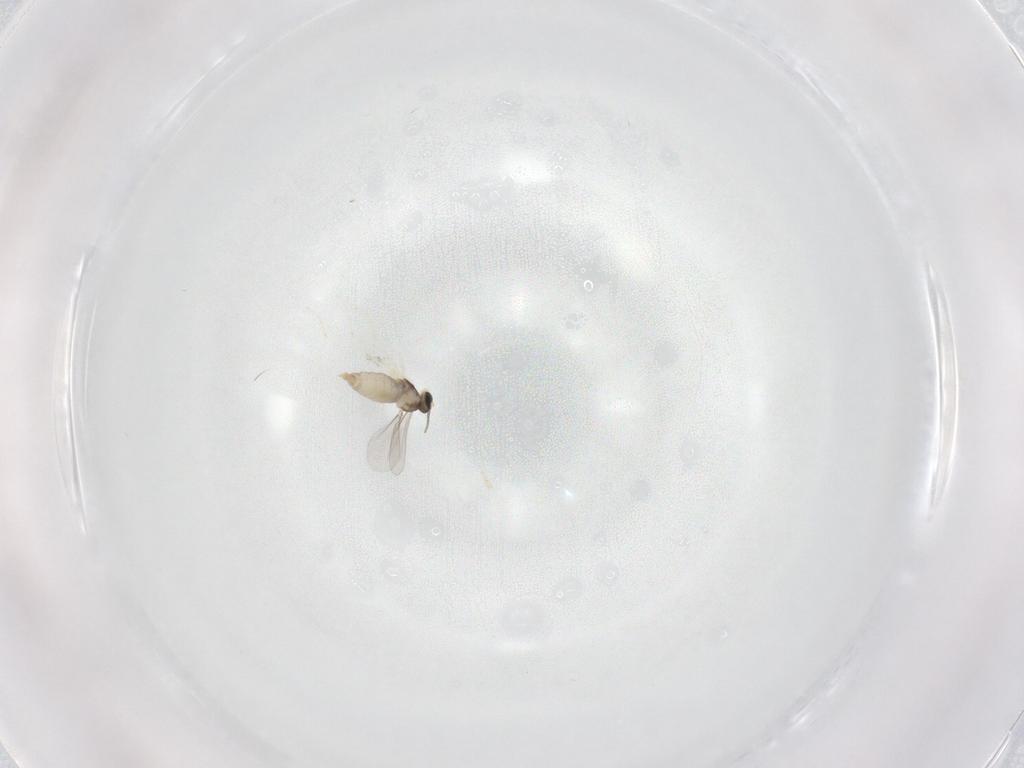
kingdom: Animalia
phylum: Arthropoda
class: Insecta
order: Diptera
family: Cecidomyiidae
